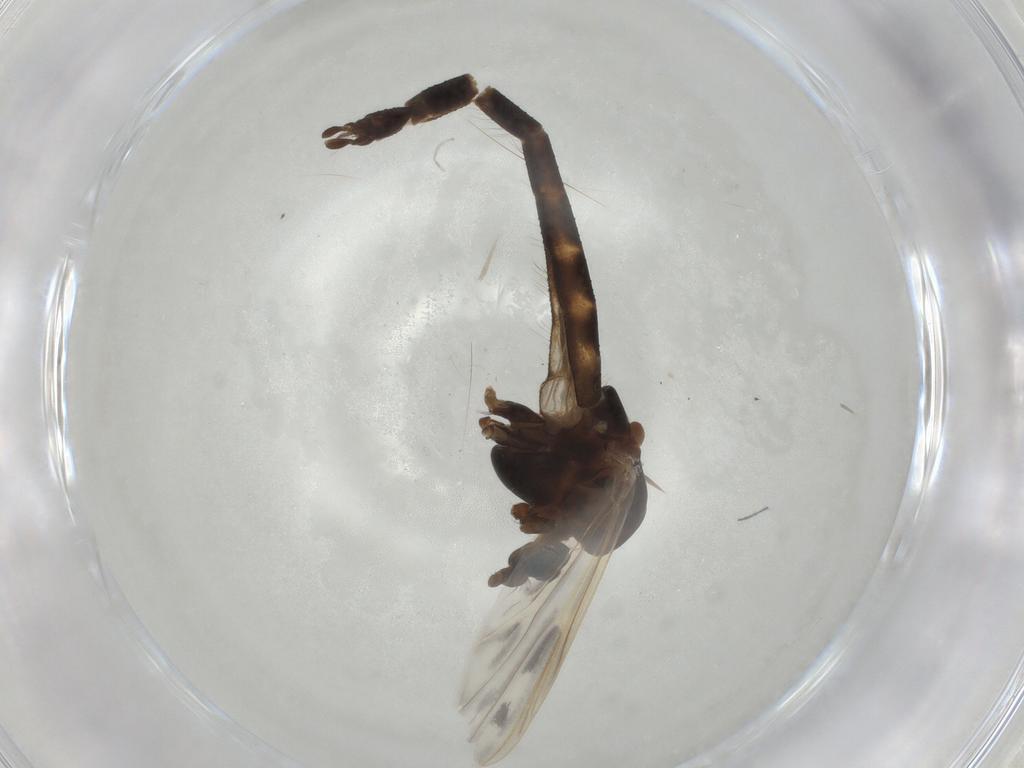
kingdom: Animalia
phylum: Arthropoda
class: Insecta
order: Diptera
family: Chironomidae
